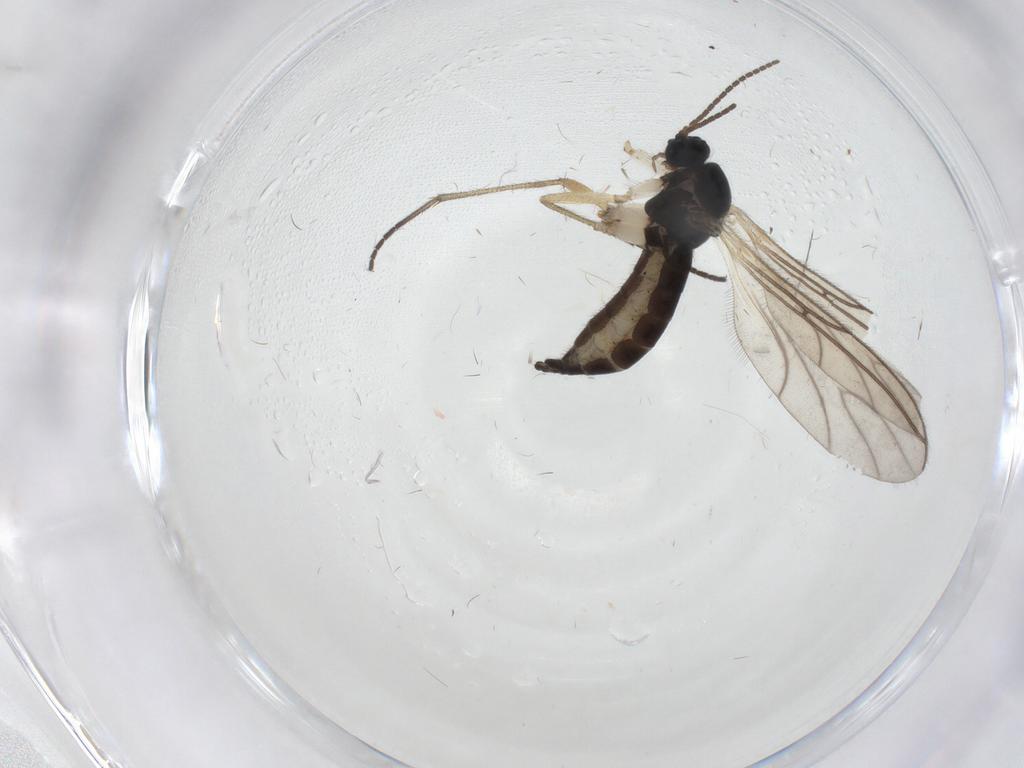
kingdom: Animalia
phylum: Arthropoda
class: Insecta
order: Diptera
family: Sciaridae
